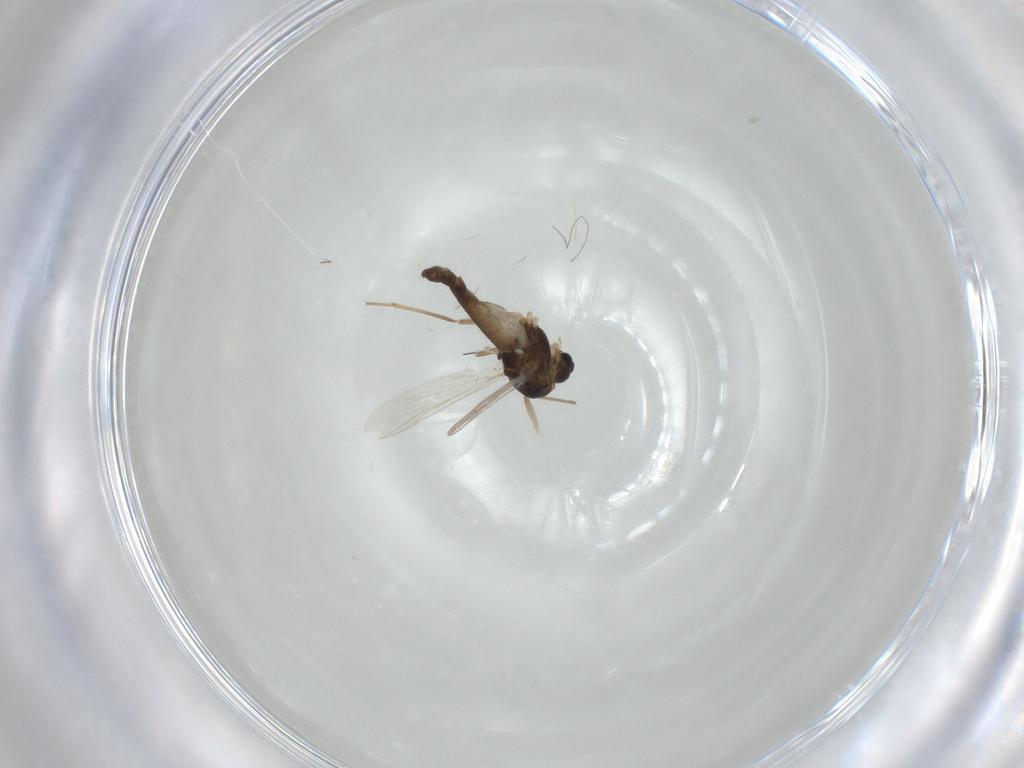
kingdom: Animalia
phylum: Arthropoda
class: Insecta
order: Diptera
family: Chironomidae
